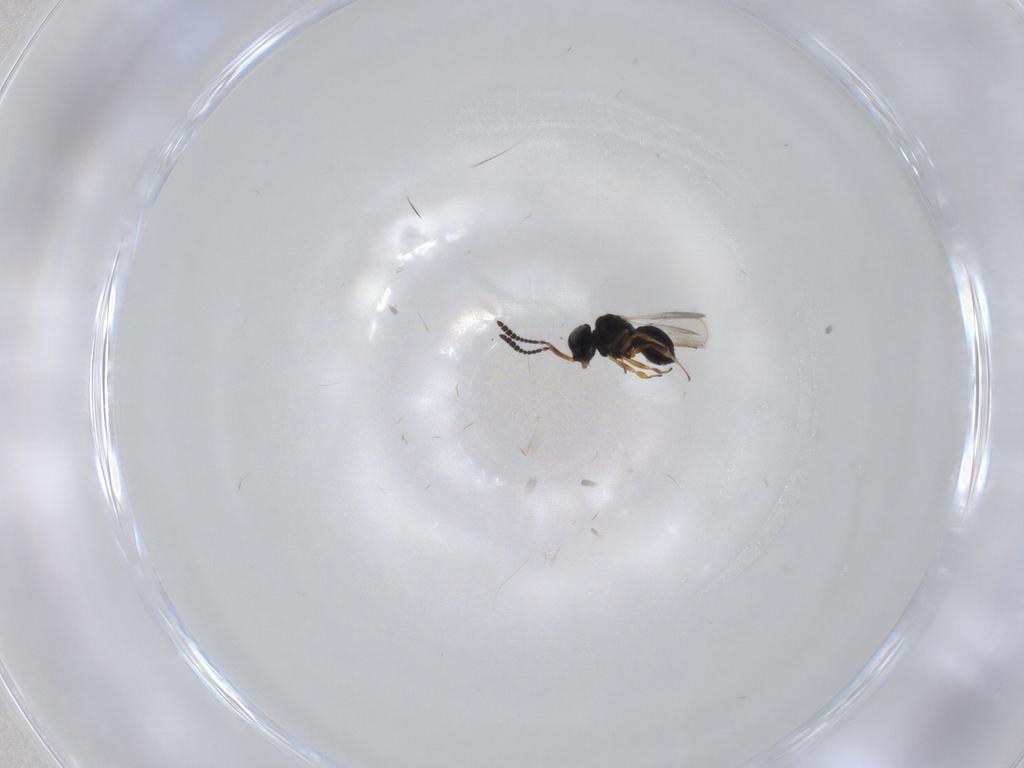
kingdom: Animalia
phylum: Arthropoda
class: Insecta
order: Hymenoptera
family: Scelionidae
